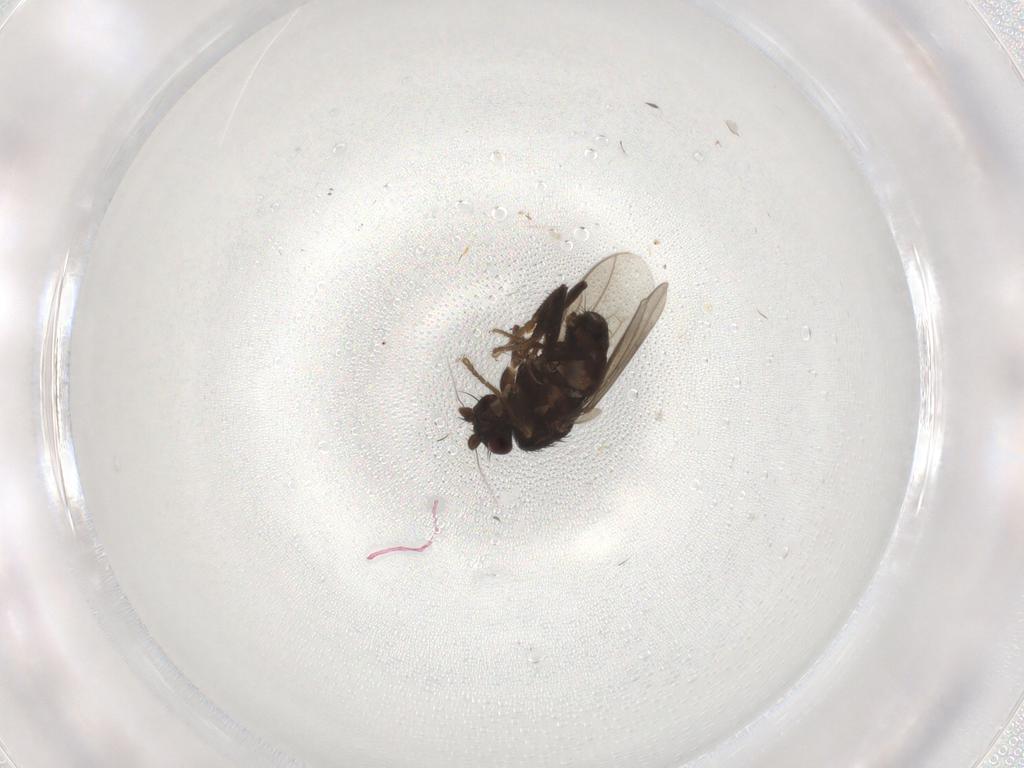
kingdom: Animalia
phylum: Arthropoda
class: Insecta
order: Diptera
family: Sphaeroceridae
